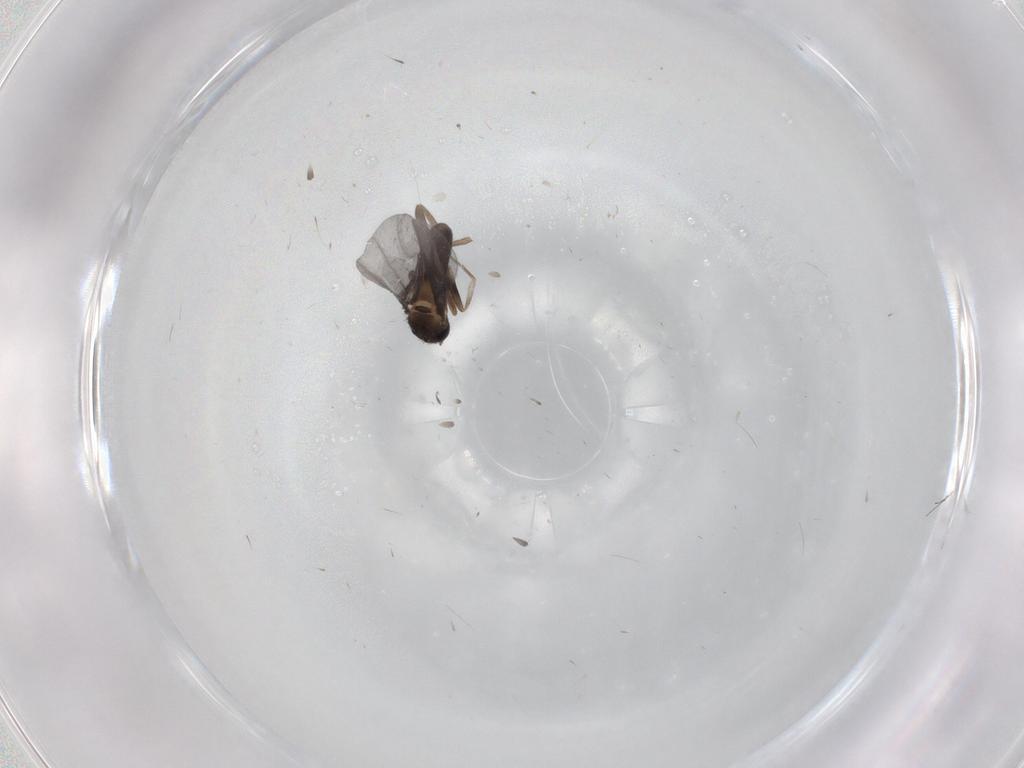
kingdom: Animalia
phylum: Arthropoda
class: Insecta
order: Diptera
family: Phoridae
